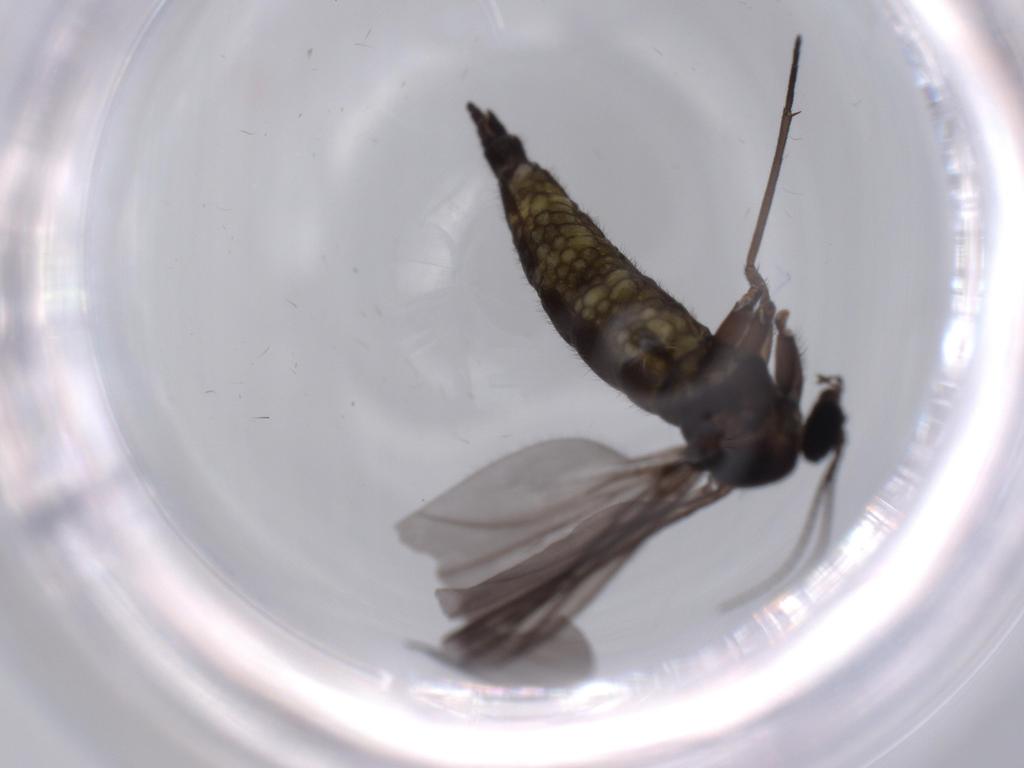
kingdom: Animalia
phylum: Arthropoda
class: Insecta
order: Diptera
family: Sciaridae
